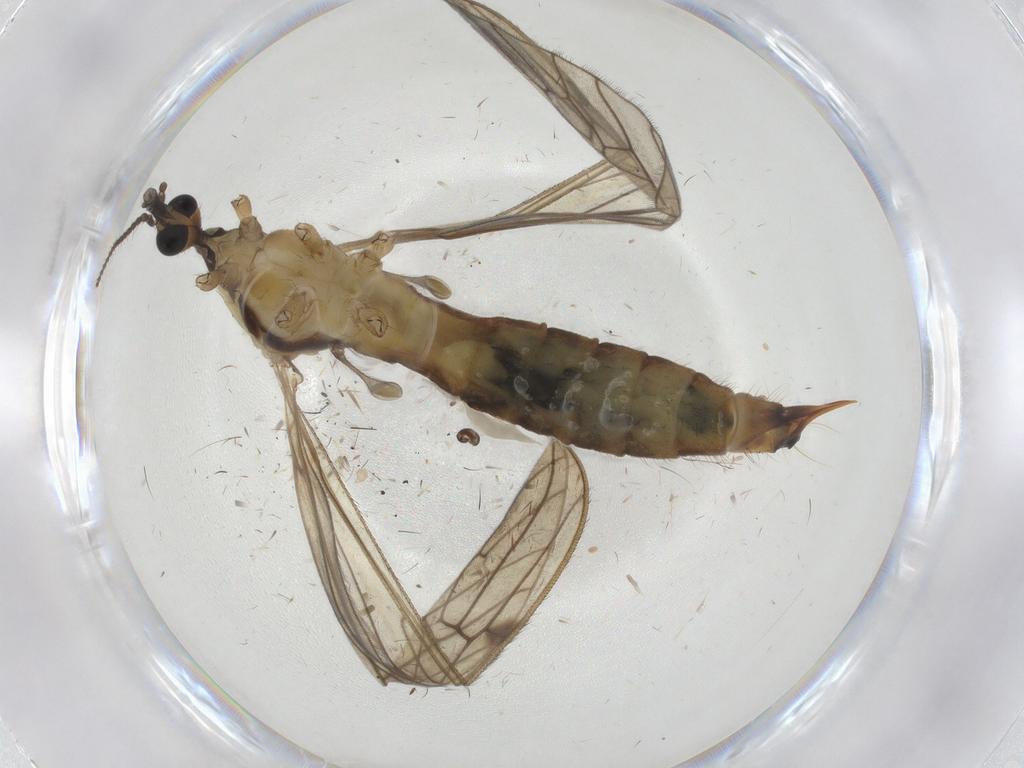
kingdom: Animalia
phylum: Arthropoda
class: Insecta
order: Diptera
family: Limoniidae
